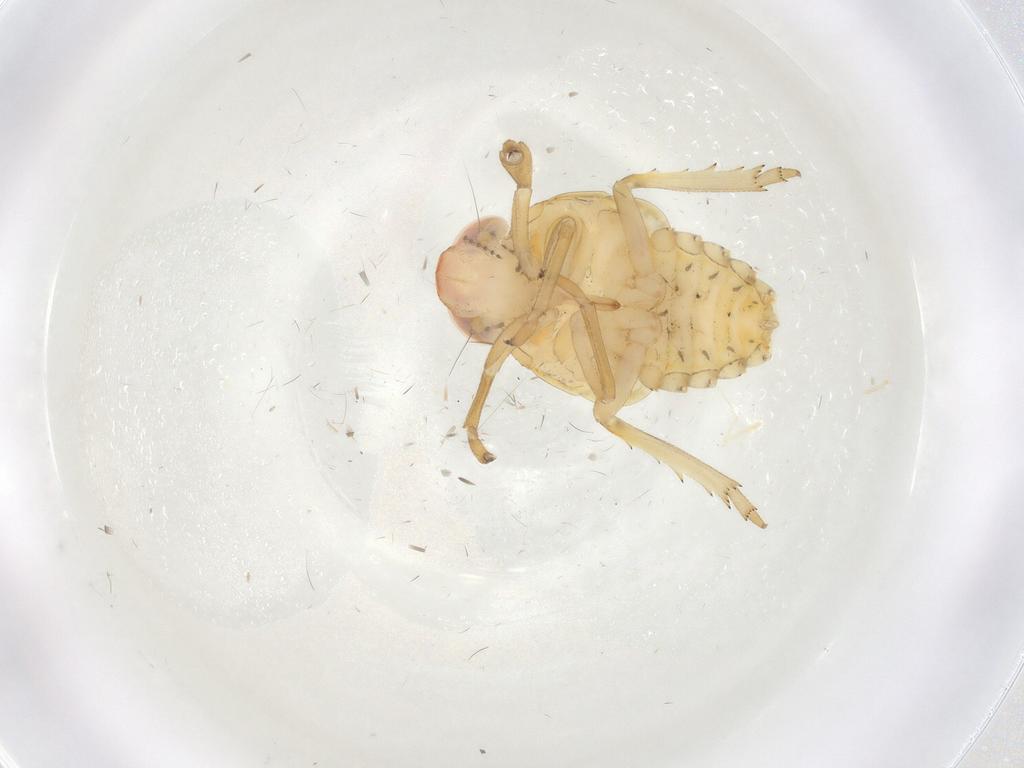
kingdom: Animalia
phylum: Arthropoda
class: Insecta
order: Hemiptera
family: Issidae
